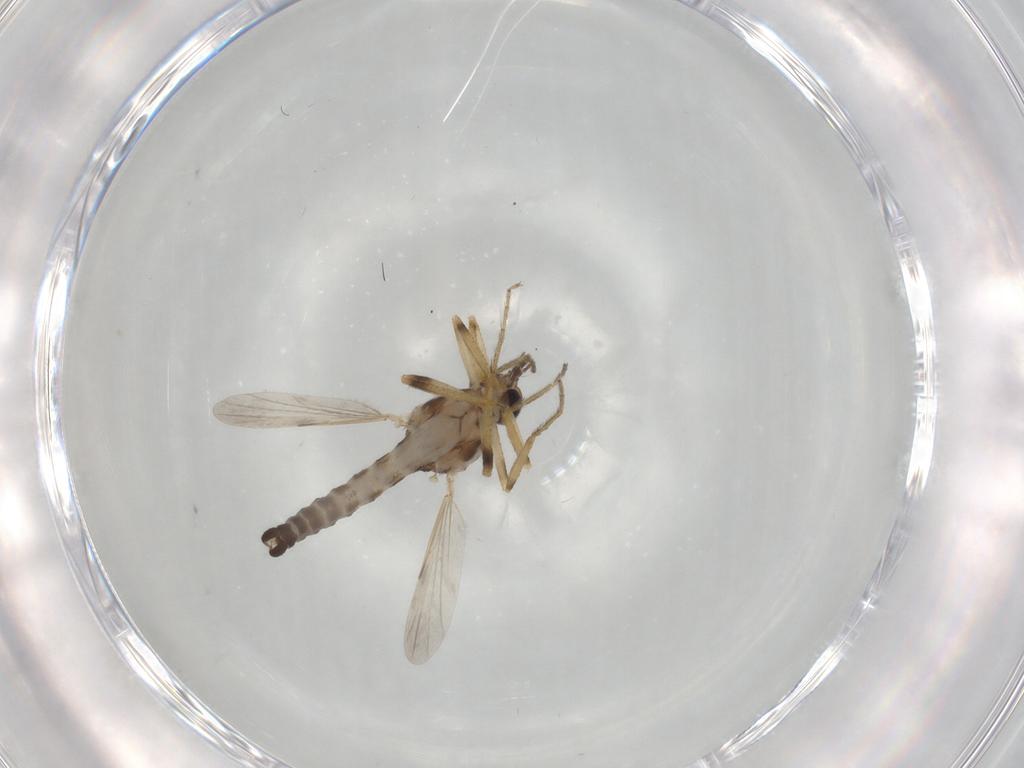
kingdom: Animalia
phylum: Arthropoda
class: Insecta
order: Diptera
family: Ceratopogonidae
